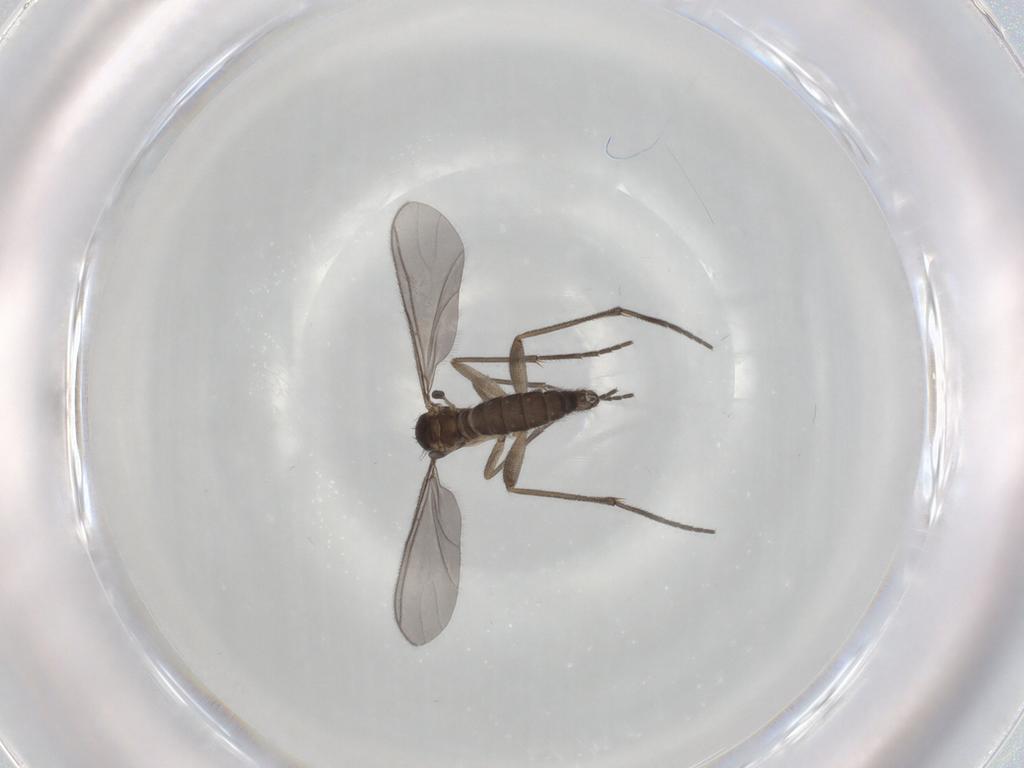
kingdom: Animalia
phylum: Arthropoda
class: Insecta
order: Diptera
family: Sciaridae
